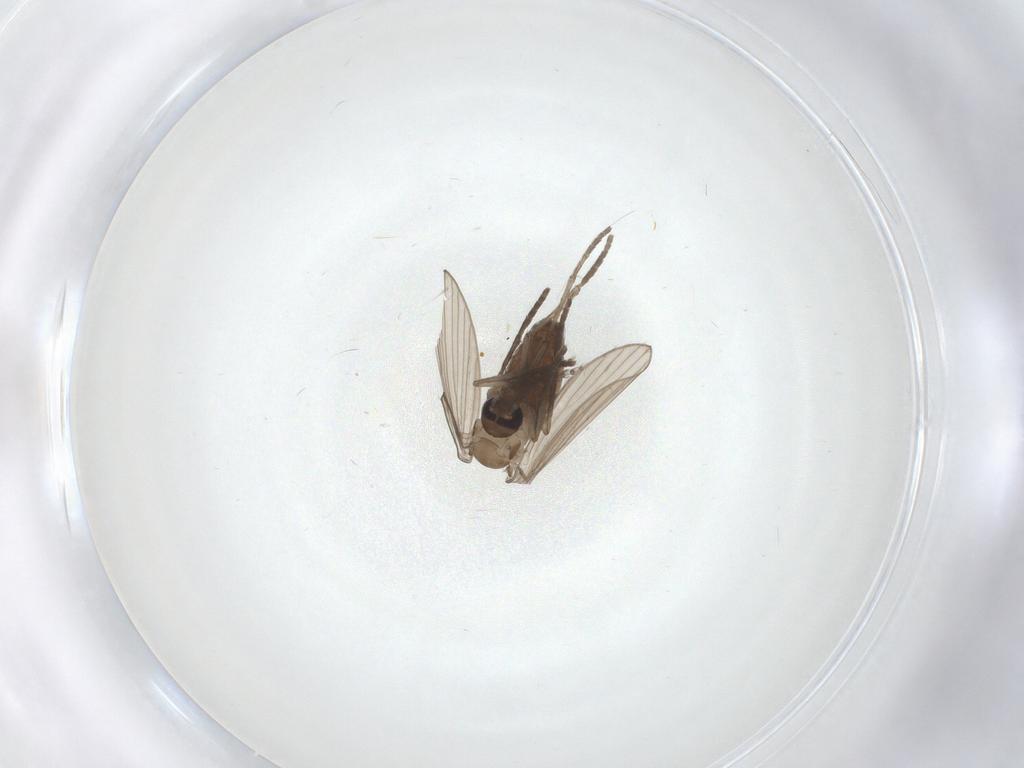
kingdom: Animalia
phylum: Arthropoda
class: Insecta
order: Diptera
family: Psychodidae
